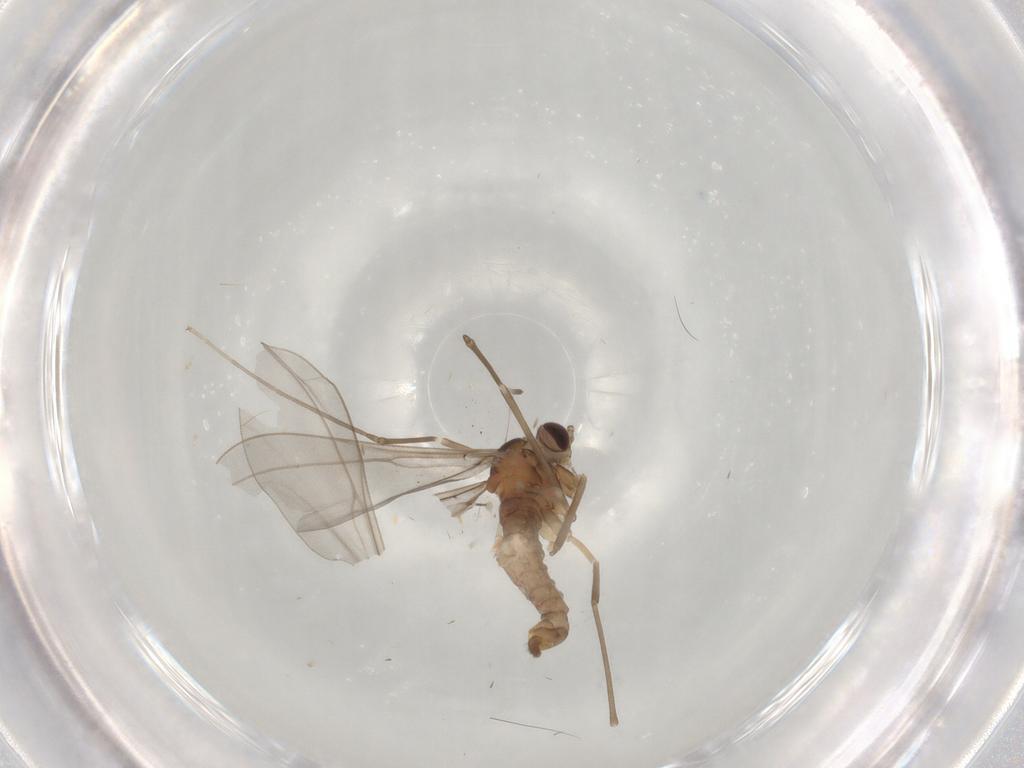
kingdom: Animalia
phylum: Arthropoda
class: Insecta
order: Diptera
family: Cecidomyiidae
